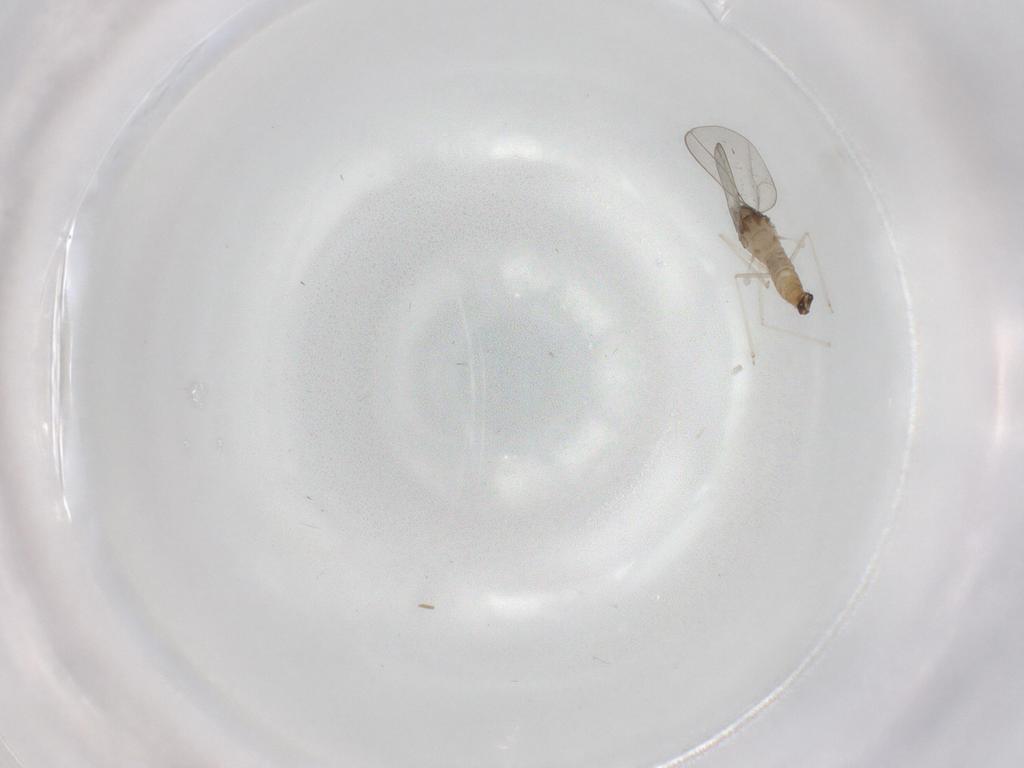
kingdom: Animalia
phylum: Arthropoda
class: Insecta
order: Diptera
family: Cecidomyiidae
